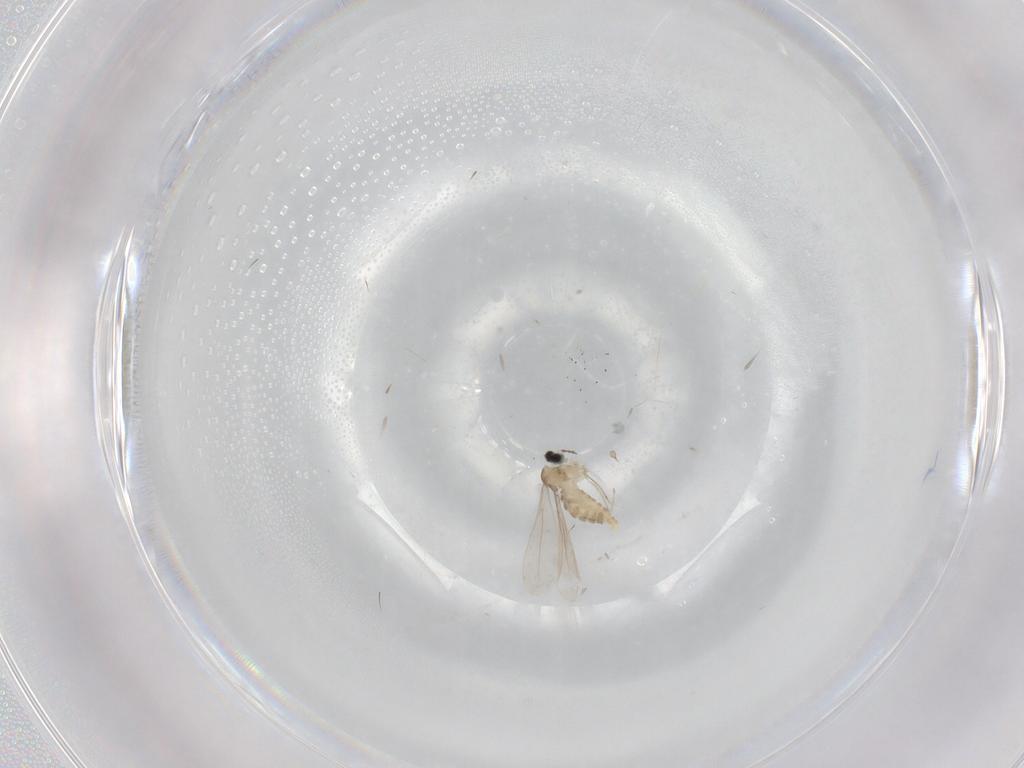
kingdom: Animalia
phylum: Arthropoda
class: Insecta
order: Diptera
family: Cecidomyiidae
